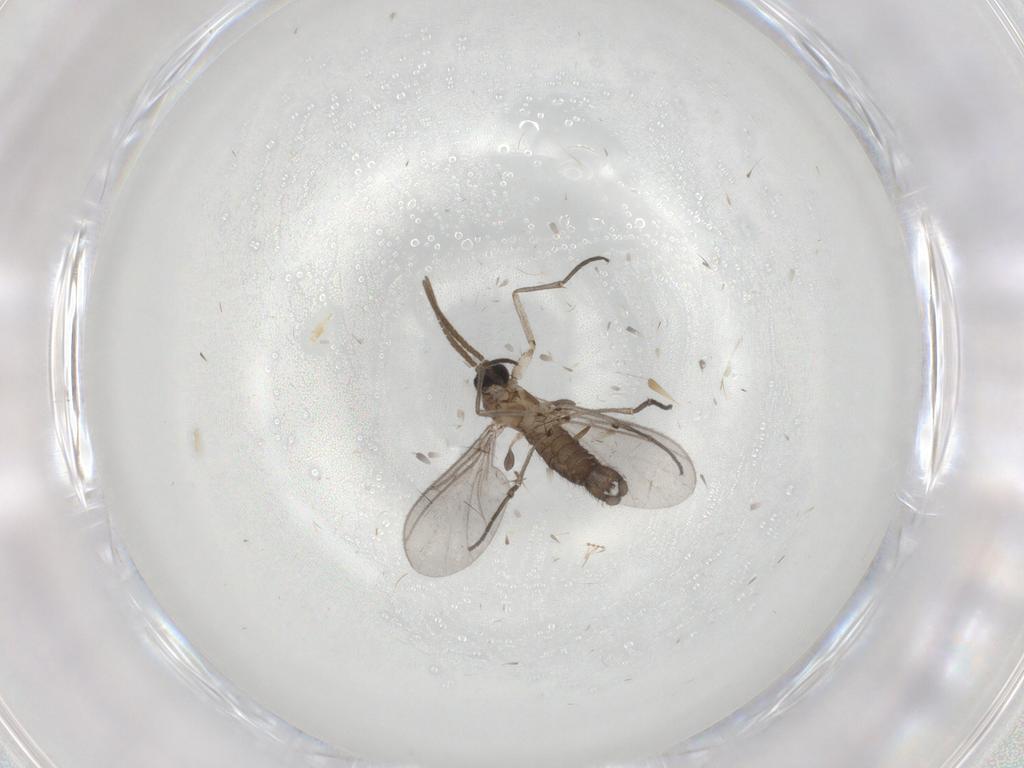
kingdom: Animalia
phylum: Arthropoda
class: Insecta
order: Diptera
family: Cecidomyiidae
